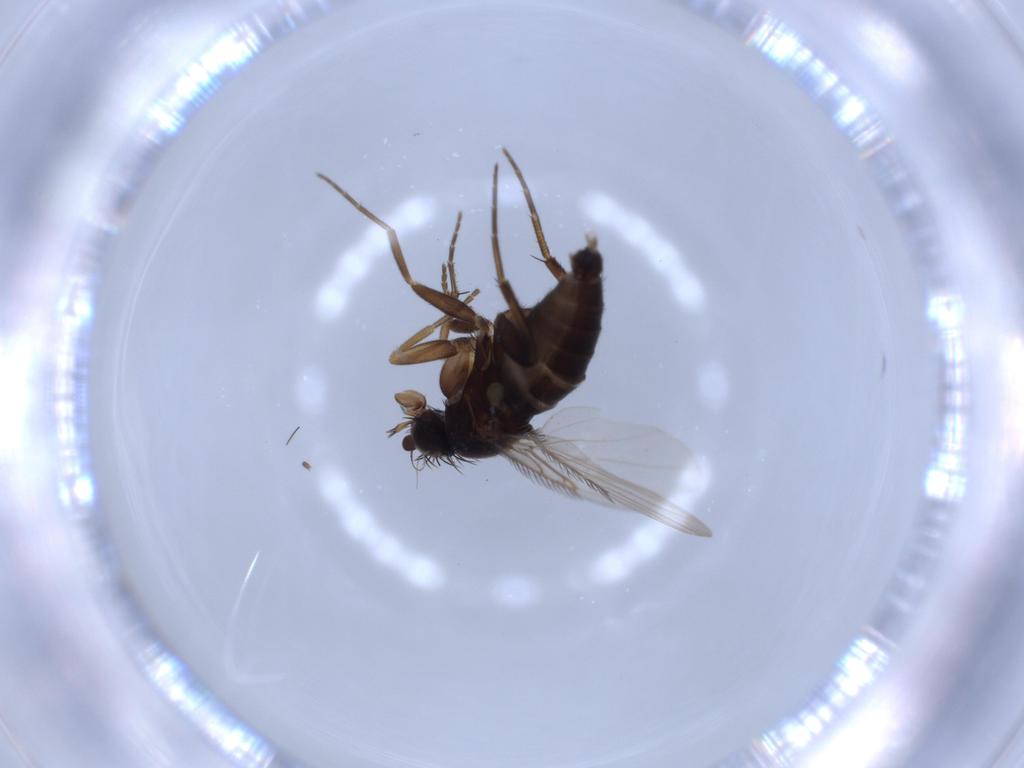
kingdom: Animalia
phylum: Arthropoda
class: Insecta
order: Diptera
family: Phoridae
